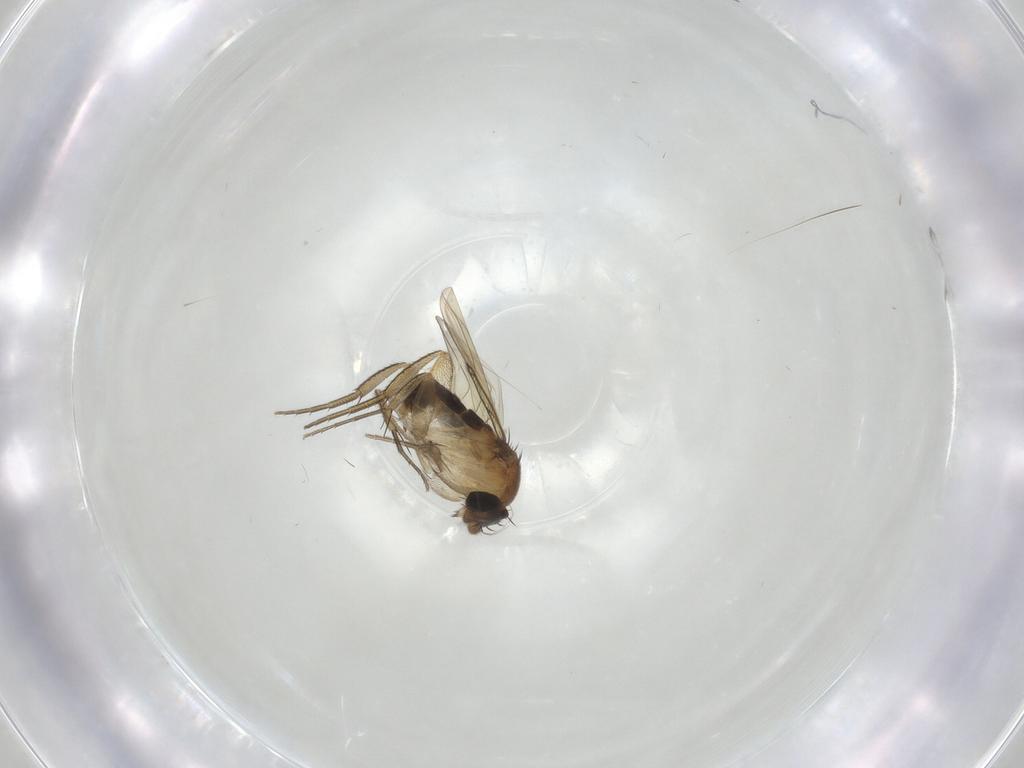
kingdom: Animalia
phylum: Arthropoda
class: Insecta
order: Diptera
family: Phoridae
